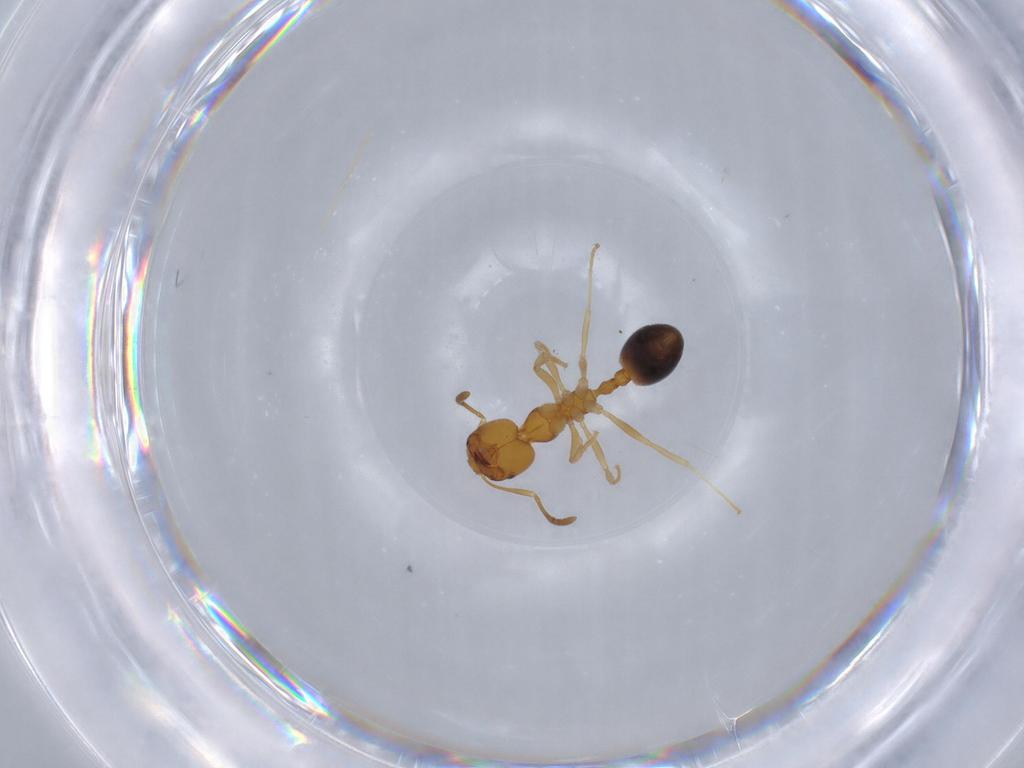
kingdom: Animalia
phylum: Arthropoda
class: Insecta
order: Hymenoptera
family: Formicidae
